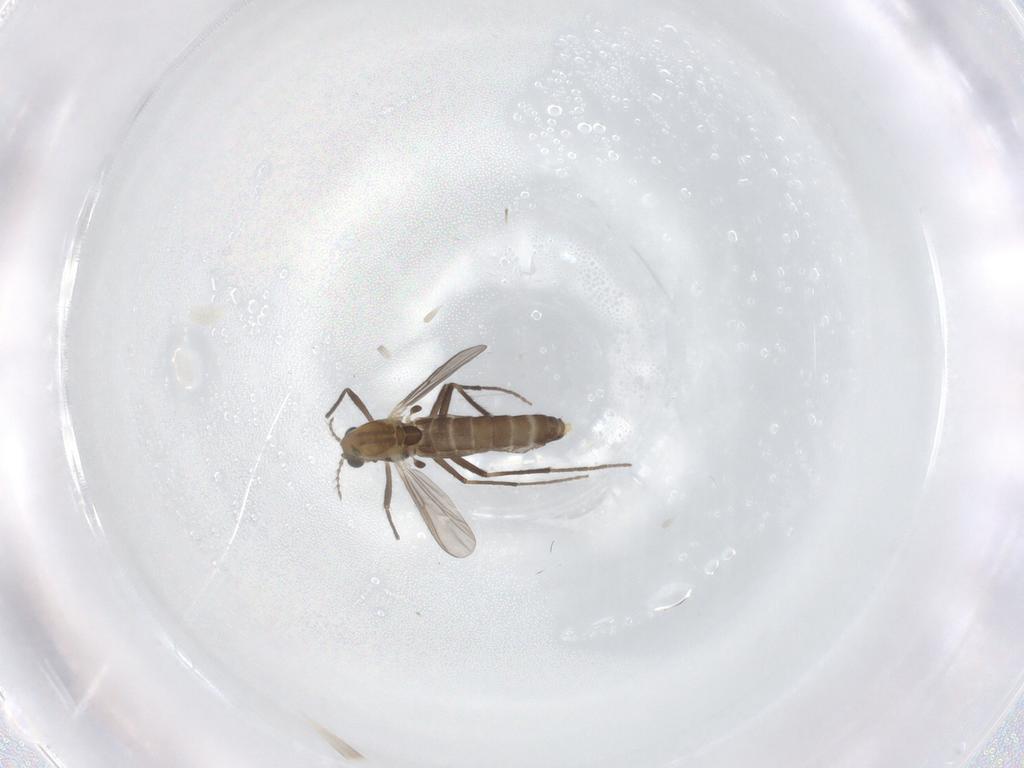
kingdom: Animalia
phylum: Arthropoda
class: Insecta
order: Diptera
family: Chironomidae
